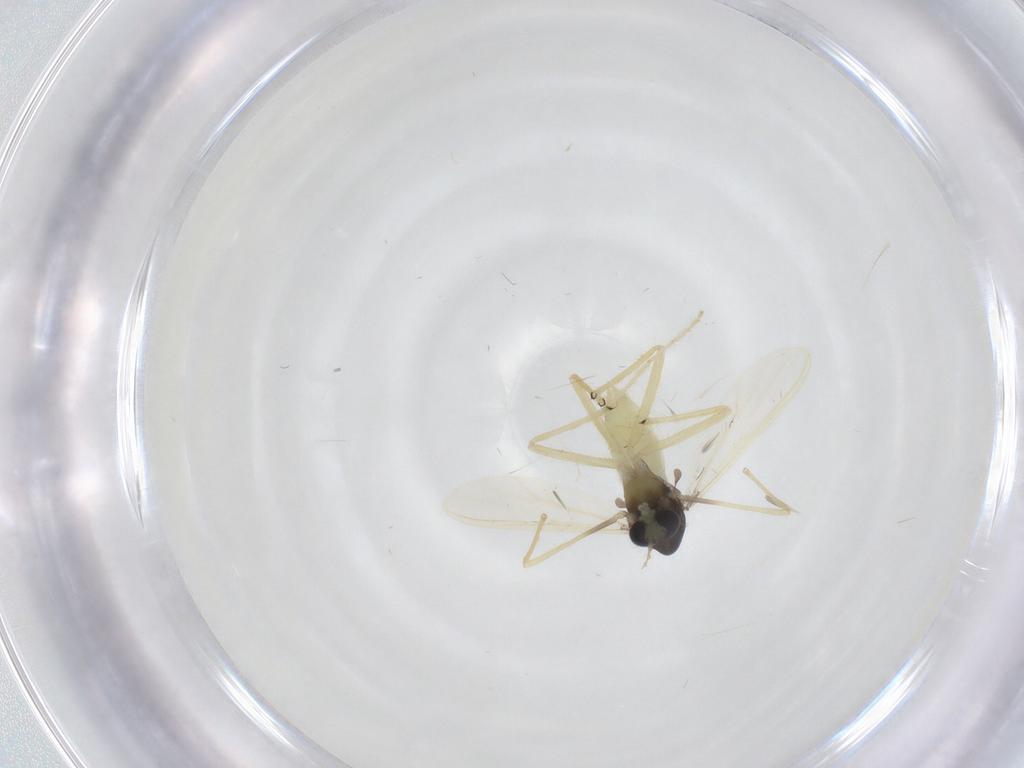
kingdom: Animalia
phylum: Arthropoda
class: Insecta
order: Diptera
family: Chironomidae
